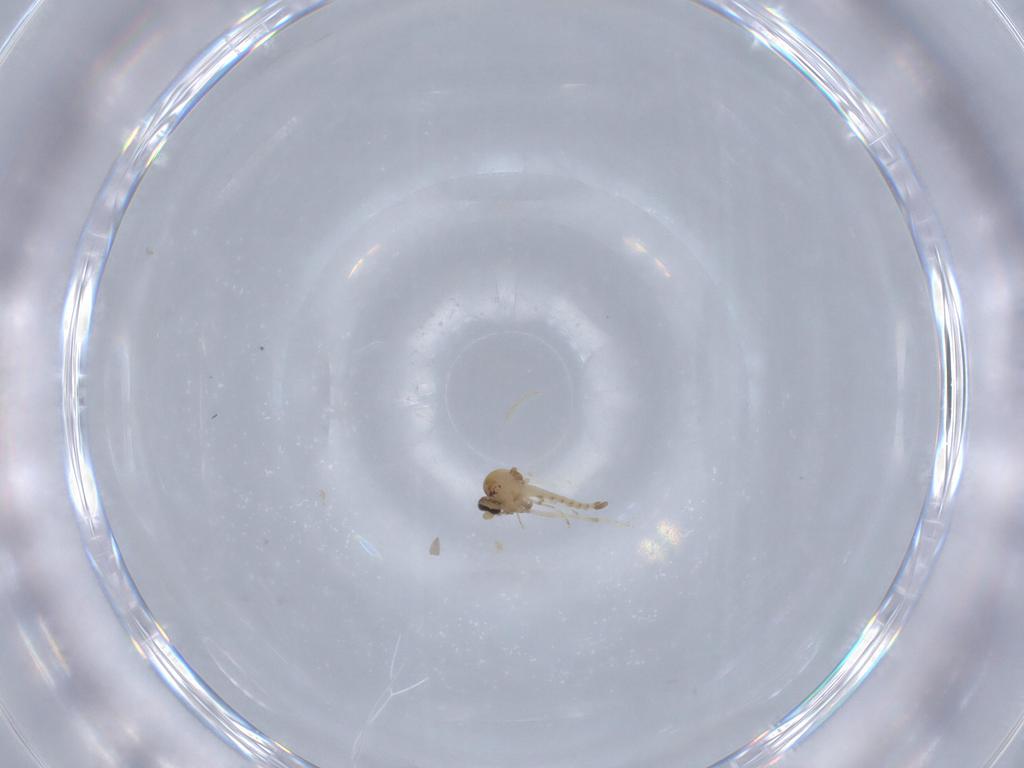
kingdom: Animalia
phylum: Arthropoda
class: Insecta
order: Diptera
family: Ceratopogonidae
